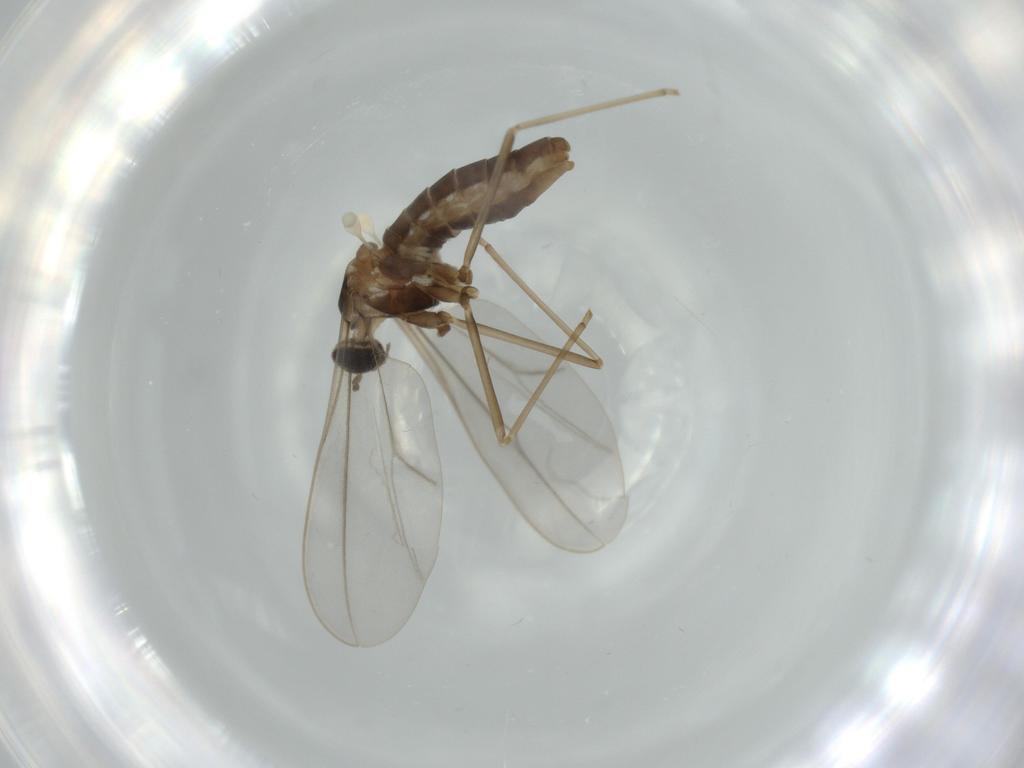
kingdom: Animalia
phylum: Arthropoda
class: Insecta
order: Diptera
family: Cecidomyiidae
